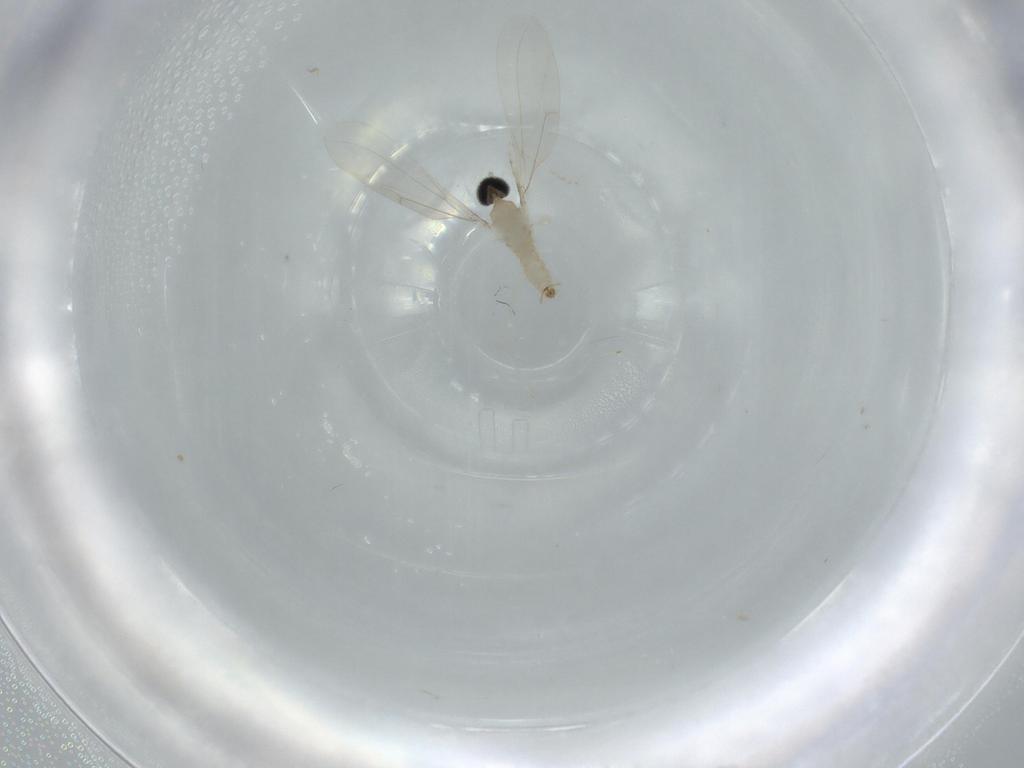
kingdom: Animalia
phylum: Arthropoda
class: Insecta
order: Diptera
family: Cecidomyiidae
